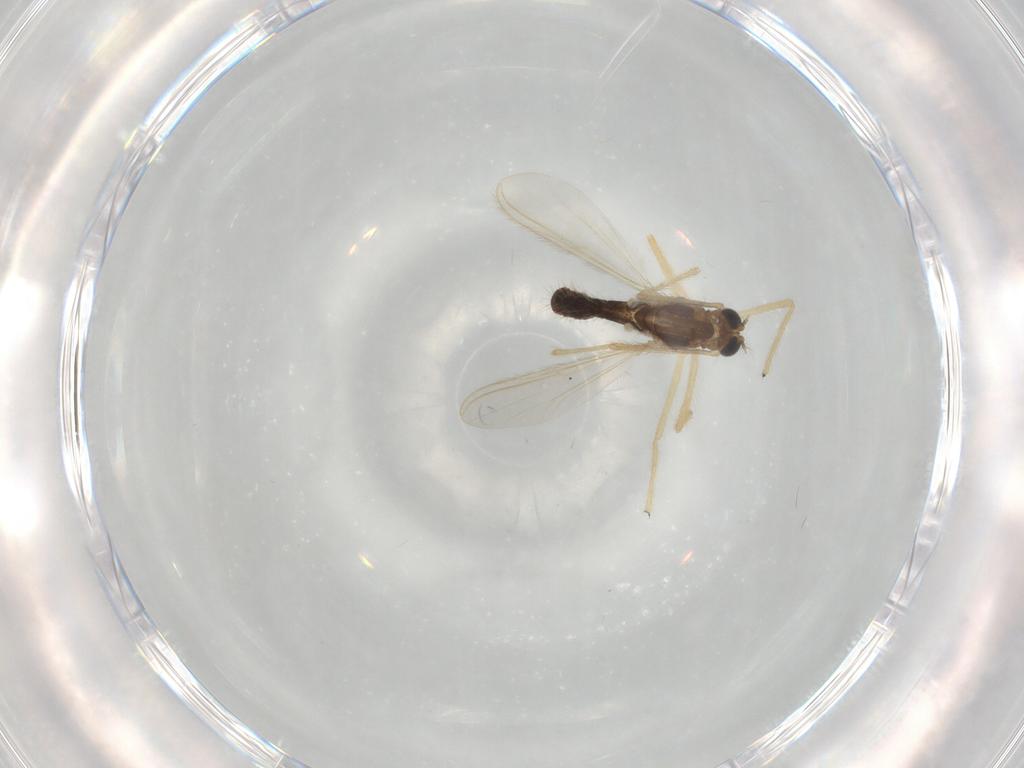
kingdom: Animalia
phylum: Arthropoda
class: Insecta
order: Diptera
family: Chironomidae
